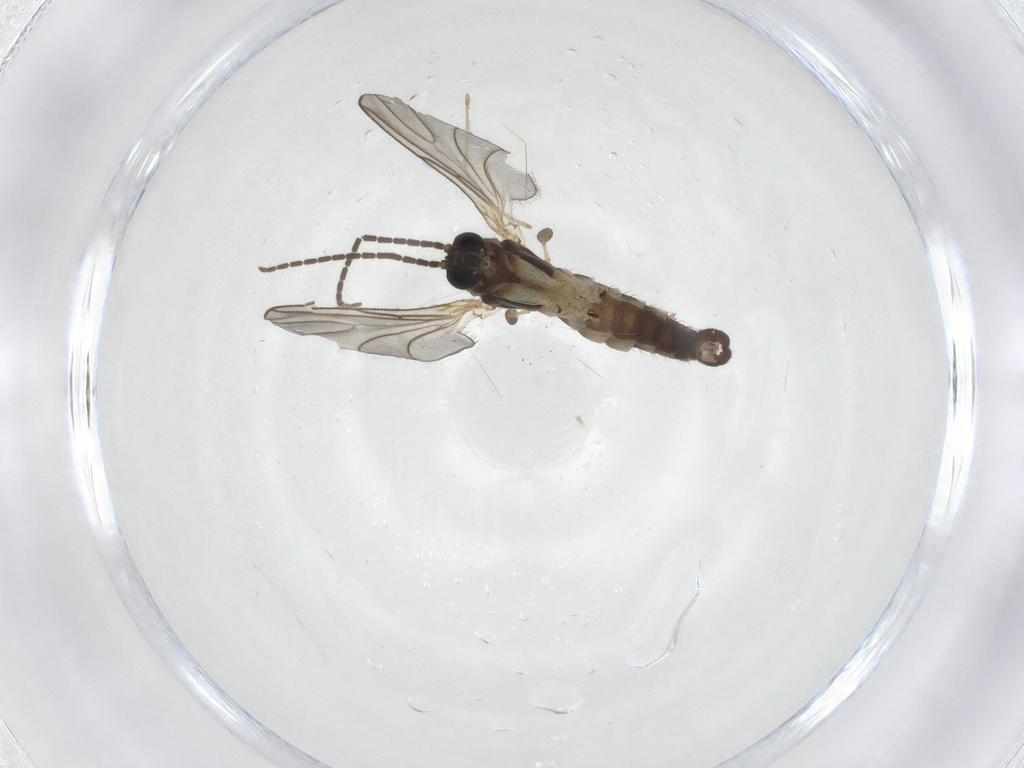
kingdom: Animalia
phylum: Arthropoda
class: Insecta
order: Diptera
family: Sciaridae
